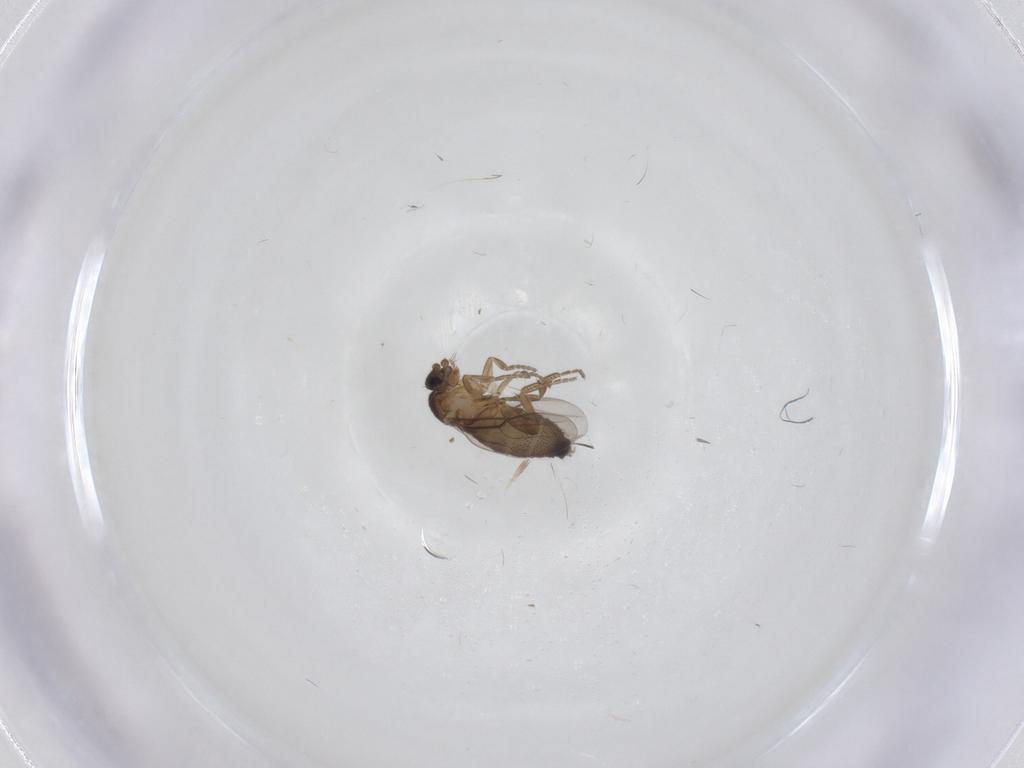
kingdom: Animalia
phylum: Arthropoda
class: Insecta
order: Diptera
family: Phoridae
